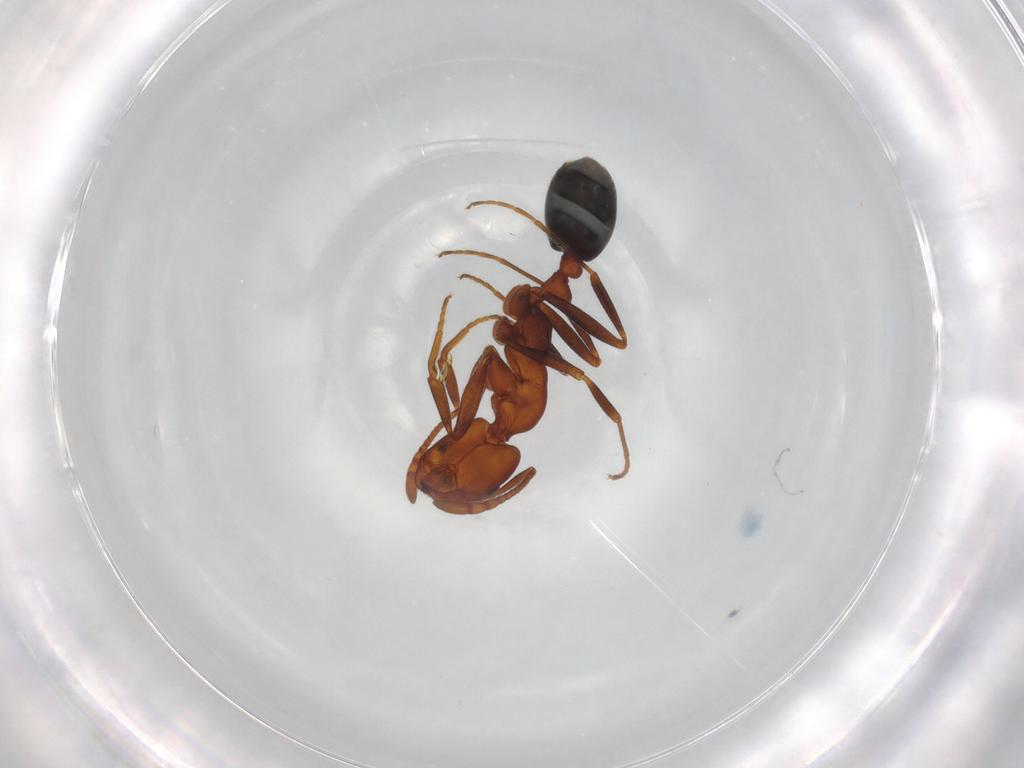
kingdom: Animalia
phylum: Arthropoda
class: Insecta
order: Hymenoptera
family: Formicidae
